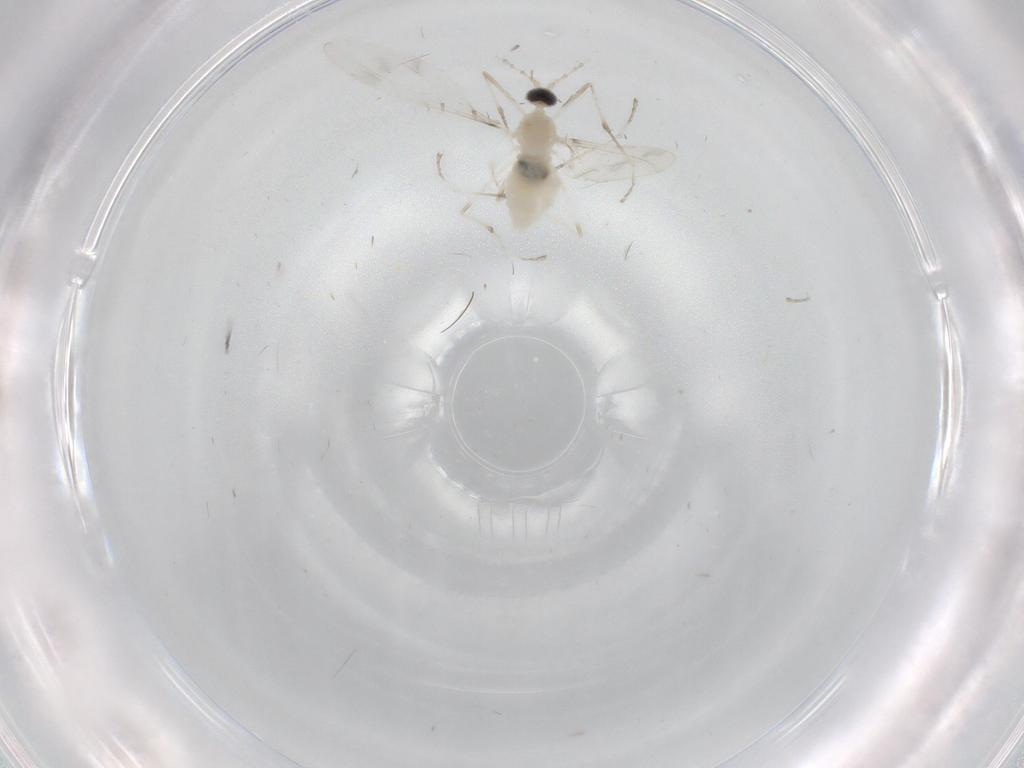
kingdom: Animalia
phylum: Arthropoda
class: Insecta
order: Diptera
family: Cecidomyiidae
